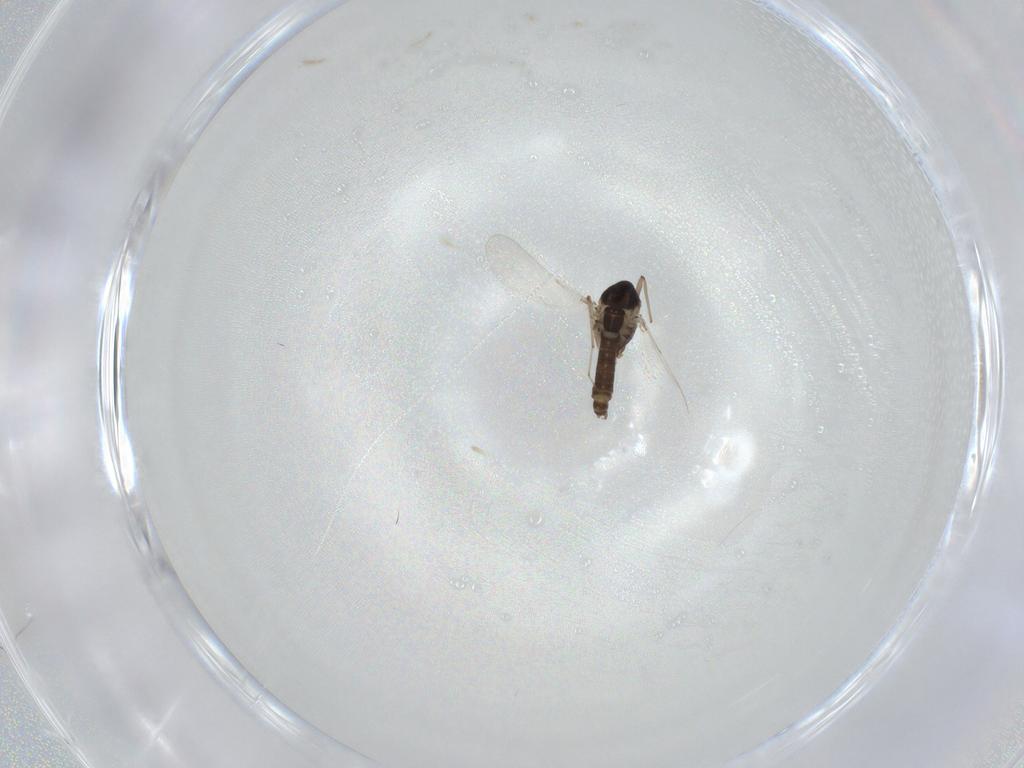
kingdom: Animalia
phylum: Arthropoda
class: Insecta
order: Diptera
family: Chironomidae
